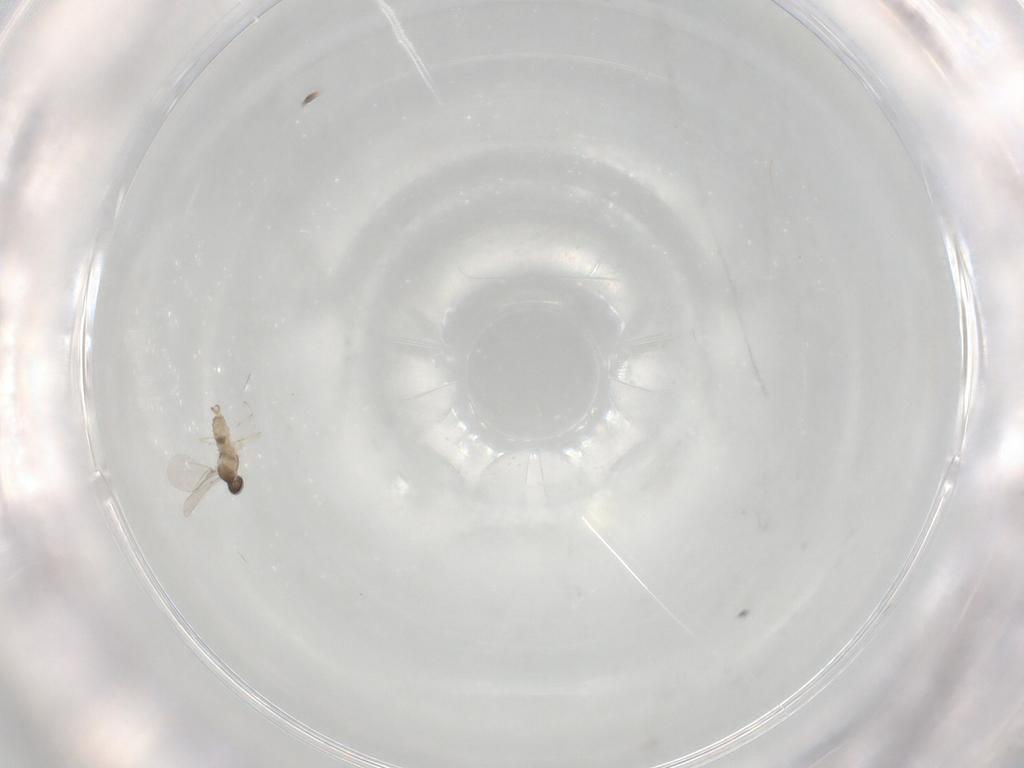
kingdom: Animalia
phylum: Arthropoda
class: Insecta
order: Diptera
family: Cecidomyiidae
